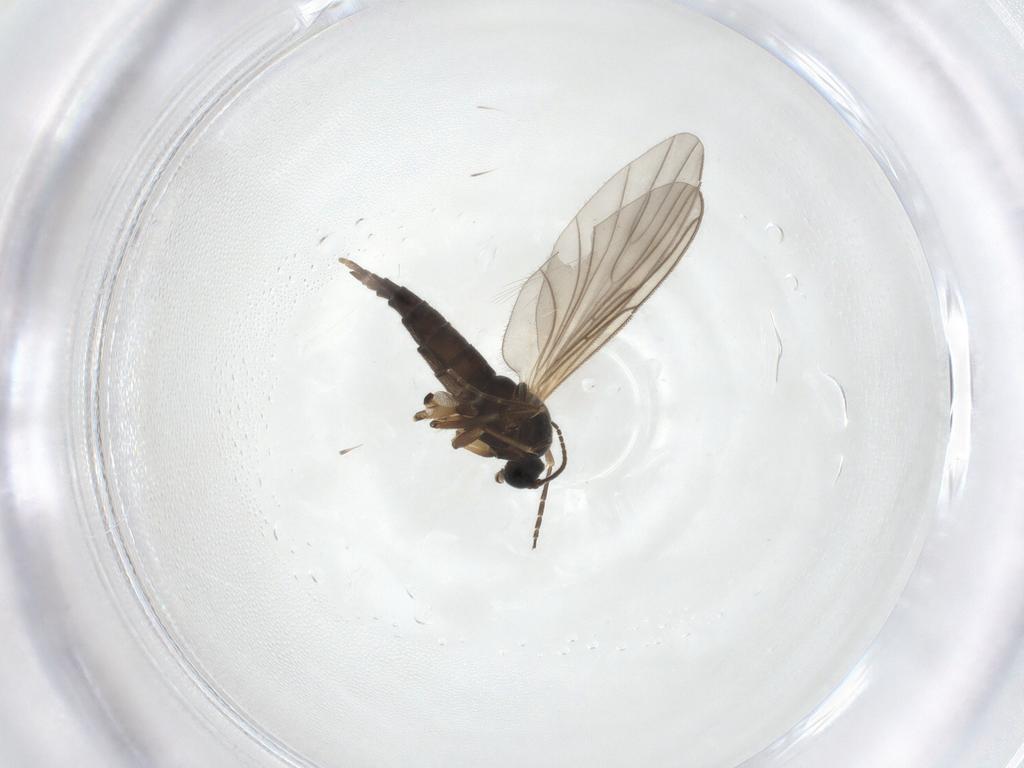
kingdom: Animalia
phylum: Arthropoda
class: Insecta
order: Diptera
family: Sciaridae
